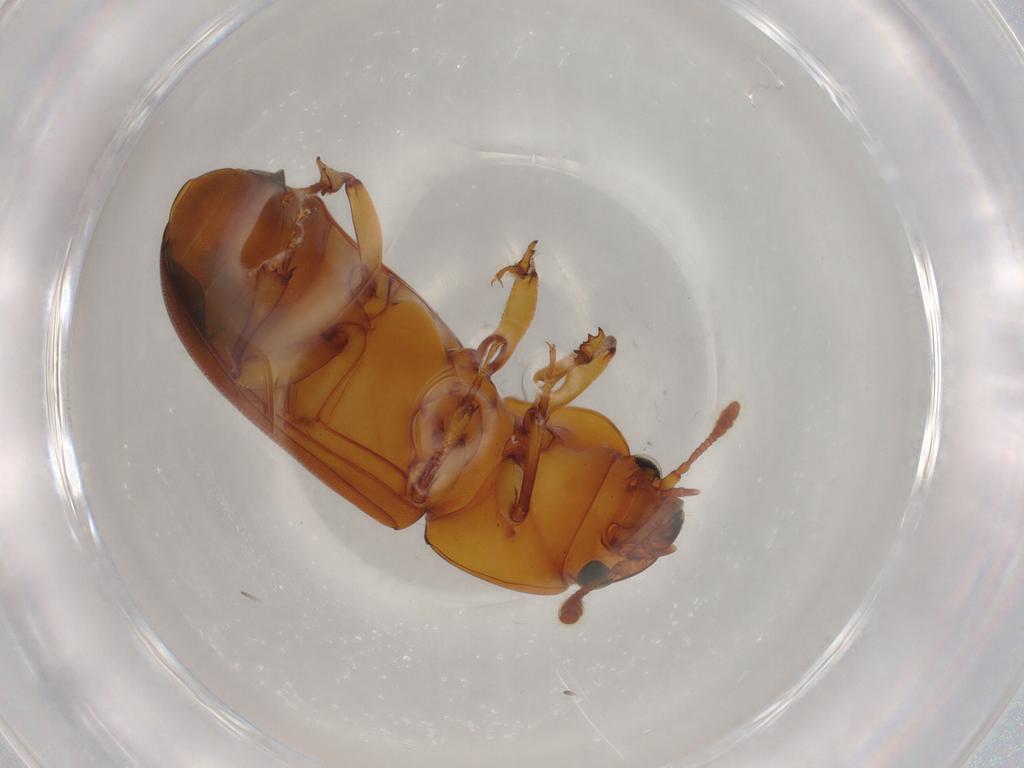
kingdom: Animalia
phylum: Arthropoda
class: Insecta
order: Coleoptera
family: Salpingidae
